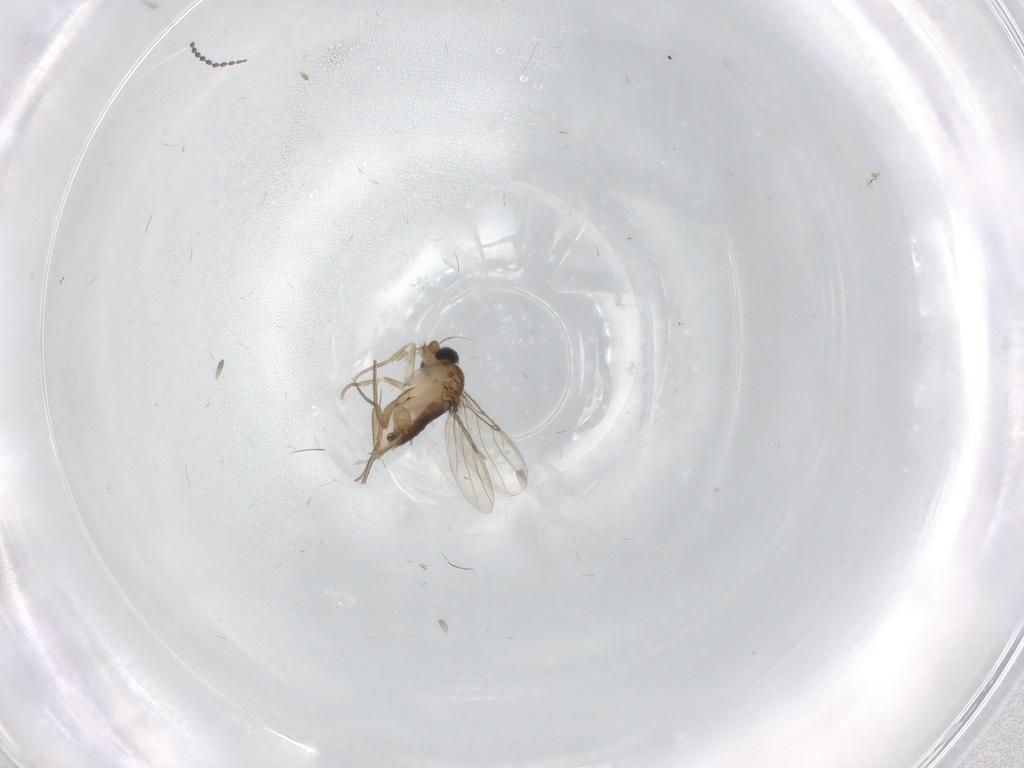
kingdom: Animalia
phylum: Arthropoda
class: Insecta
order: Diptera
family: Phoridae
